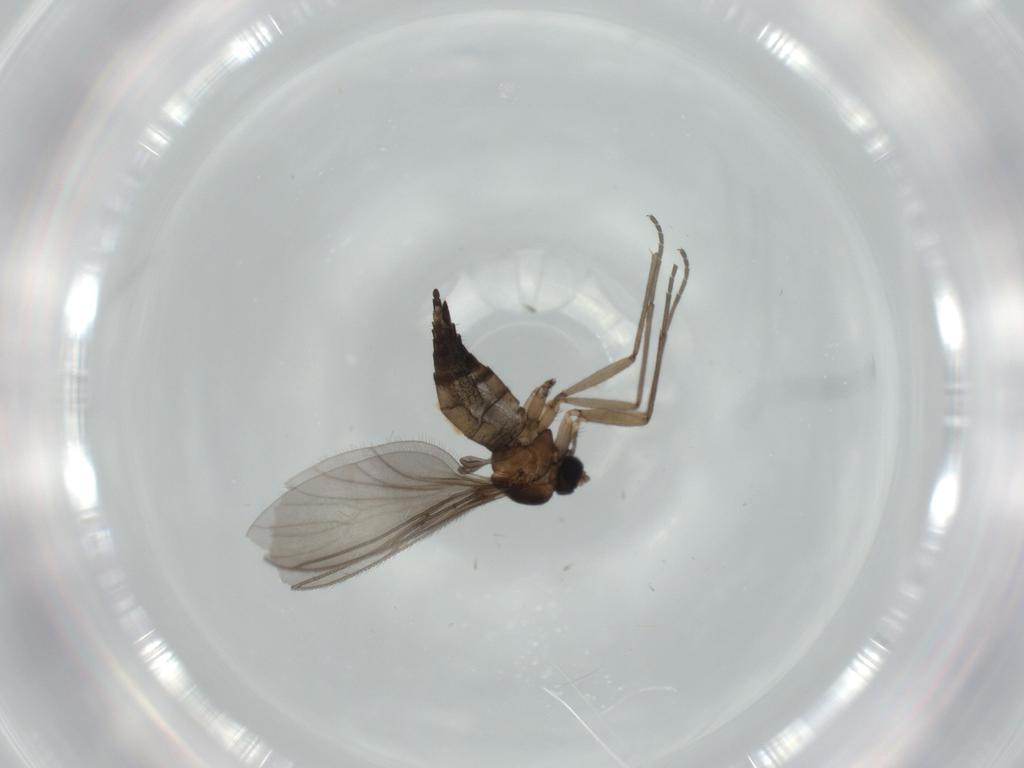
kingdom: Animalia
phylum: Arthropoda
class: Insecta
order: Diptera
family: Sciaridae
